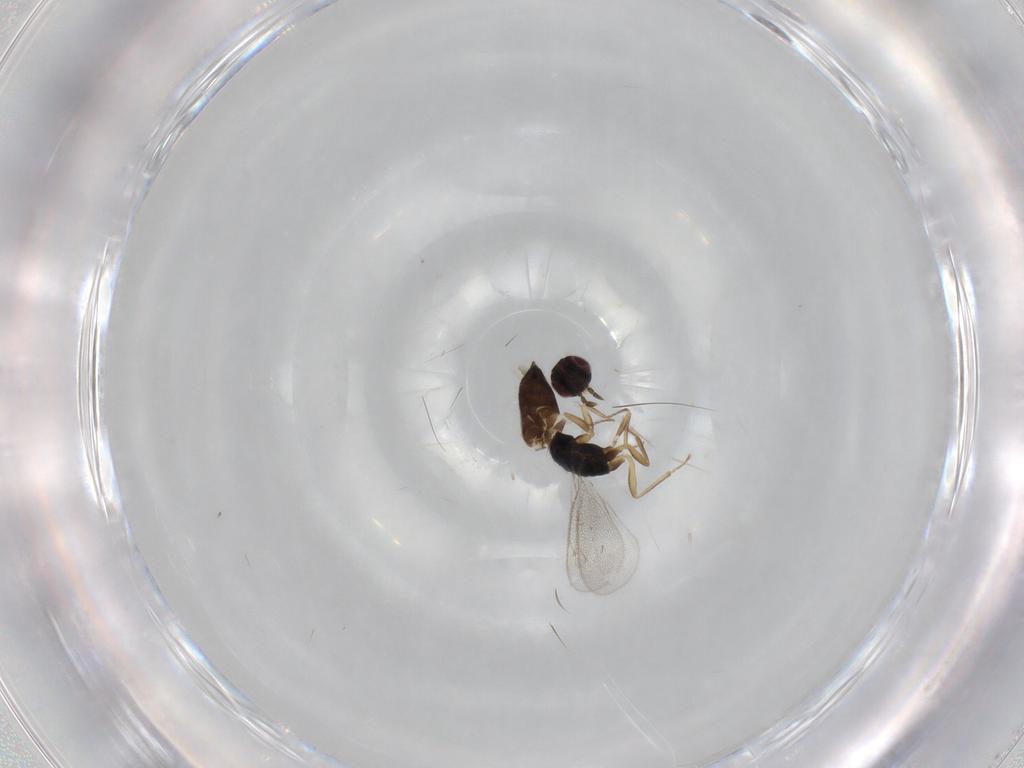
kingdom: Animalia
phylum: Arthropoda
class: Insecta
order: Hymenoptera
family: Eulophidae
